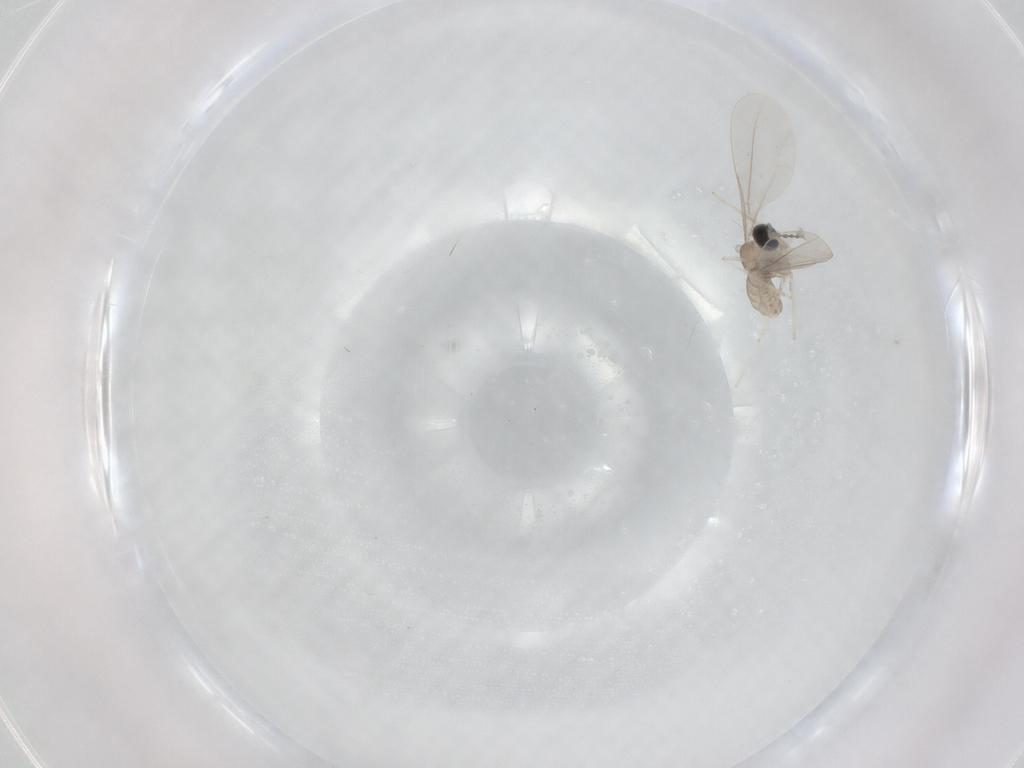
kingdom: Animalia
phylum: Arthropoda
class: Insecta
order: Diptera
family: Cecidomyiidae
